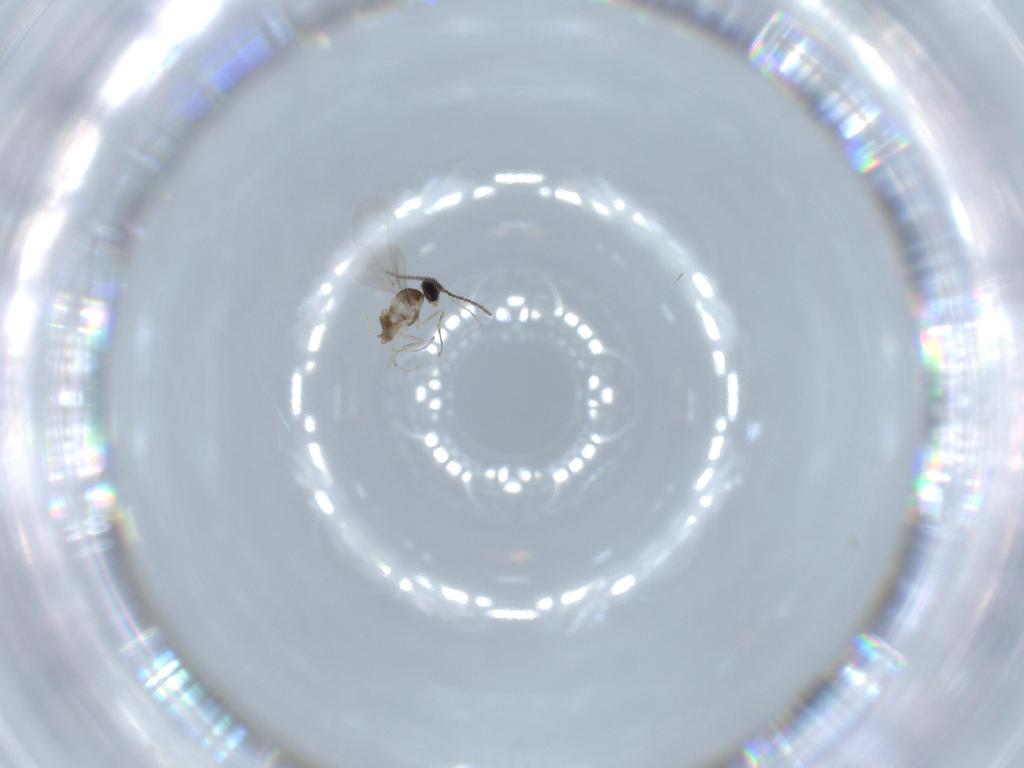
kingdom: Animalia
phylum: Arthropoda
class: Insecta
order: Diptera
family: Cecidomyiidae
